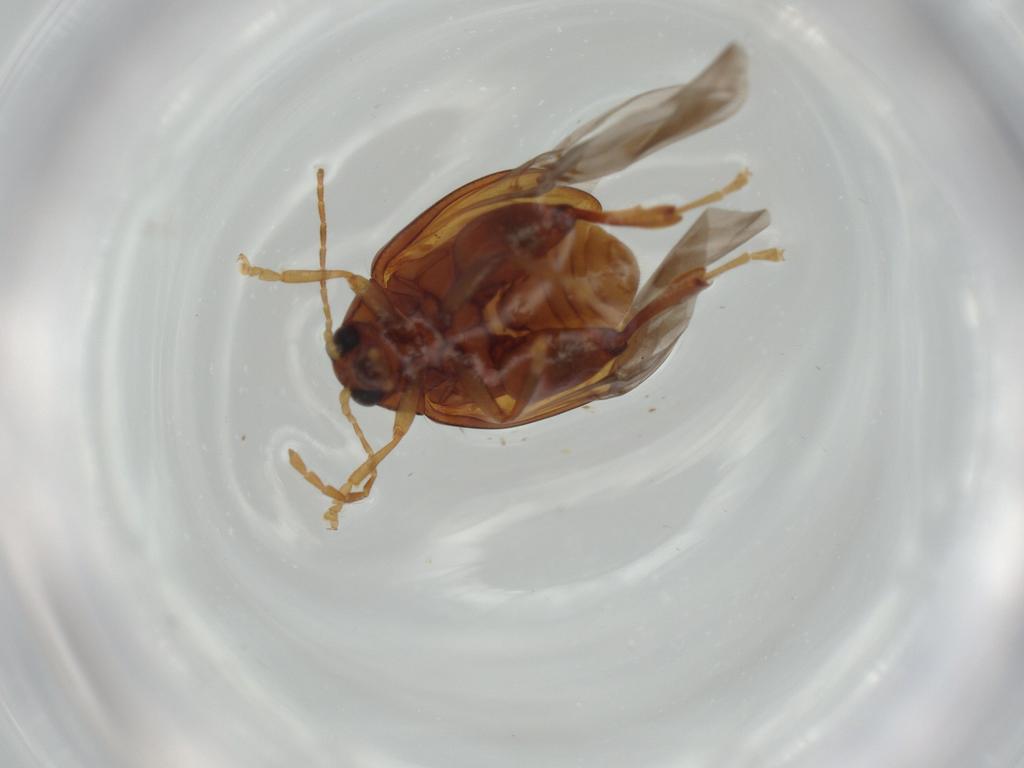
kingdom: Animalia
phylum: Arthropoda
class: Insecta
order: Coleoptera
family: Chrysomelidae
